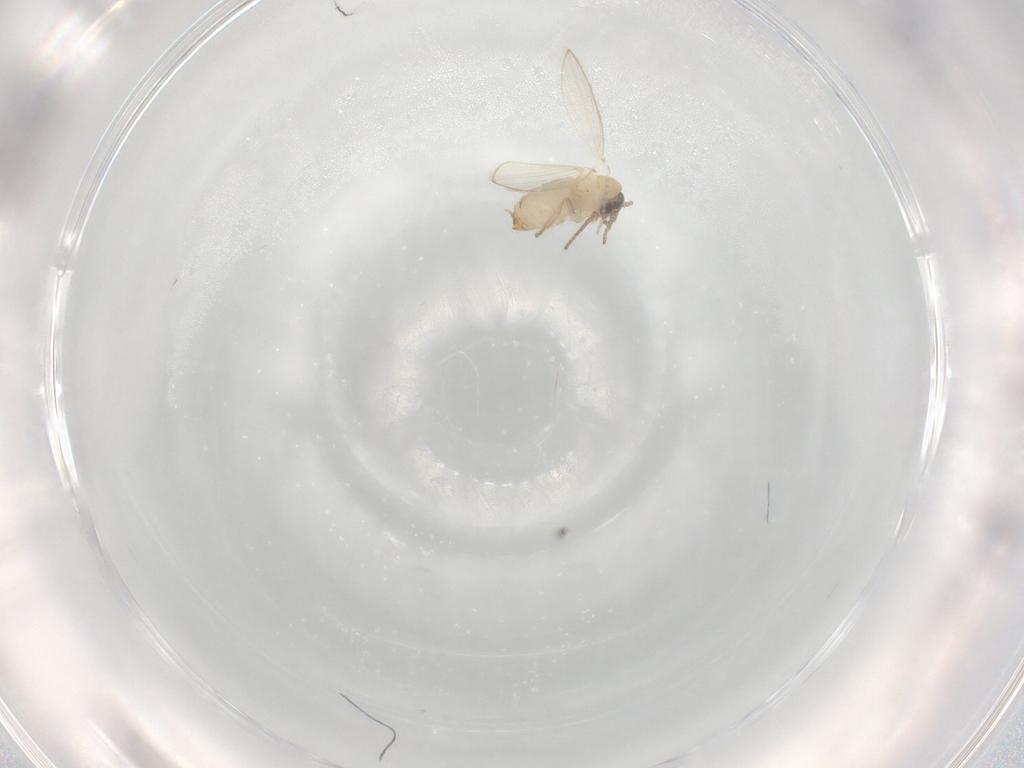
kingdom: Animalia
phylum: Arthropoda
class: Insecta
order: Diptera
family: Psychodidae
